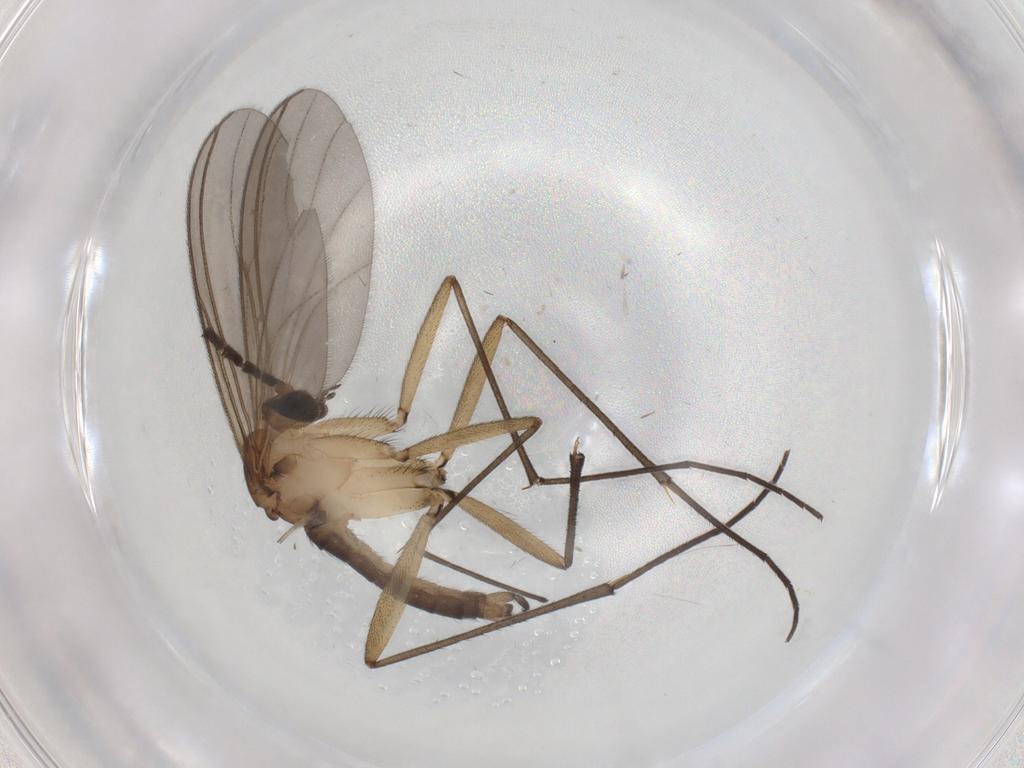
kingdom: Animalia
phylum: Arthropoda
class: Insecta
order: Diptera
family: Sciaridae
